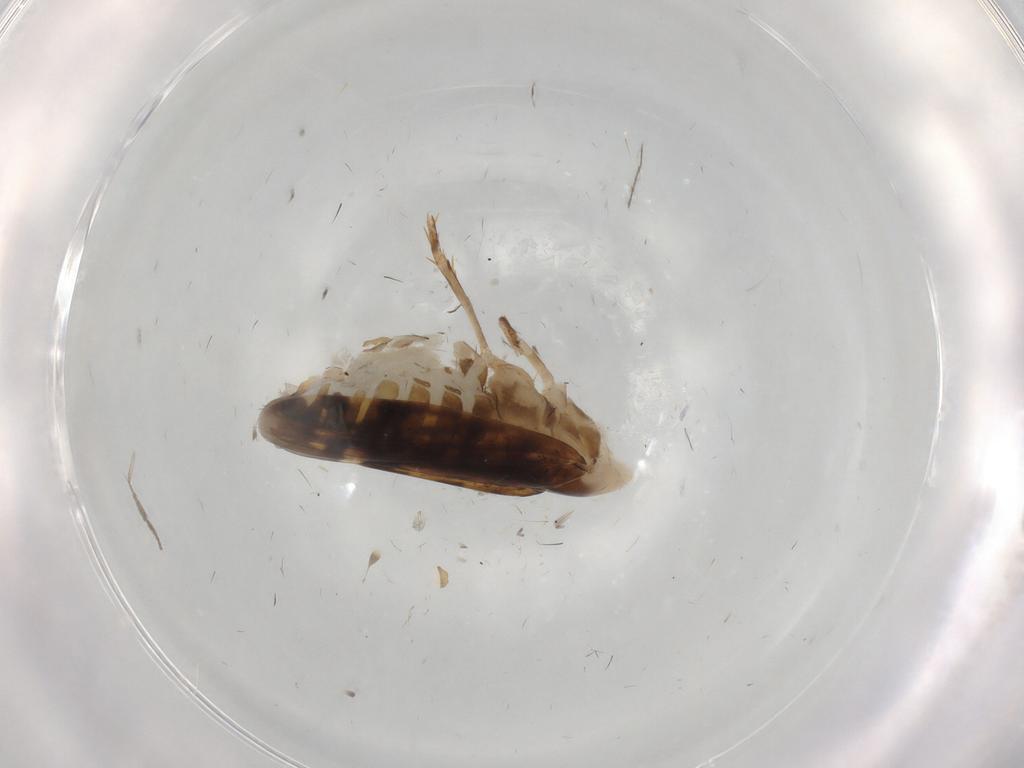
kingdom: Animalia
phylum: Arthropoda
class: Insecta
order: Hemiptera
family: Cicadellidae
